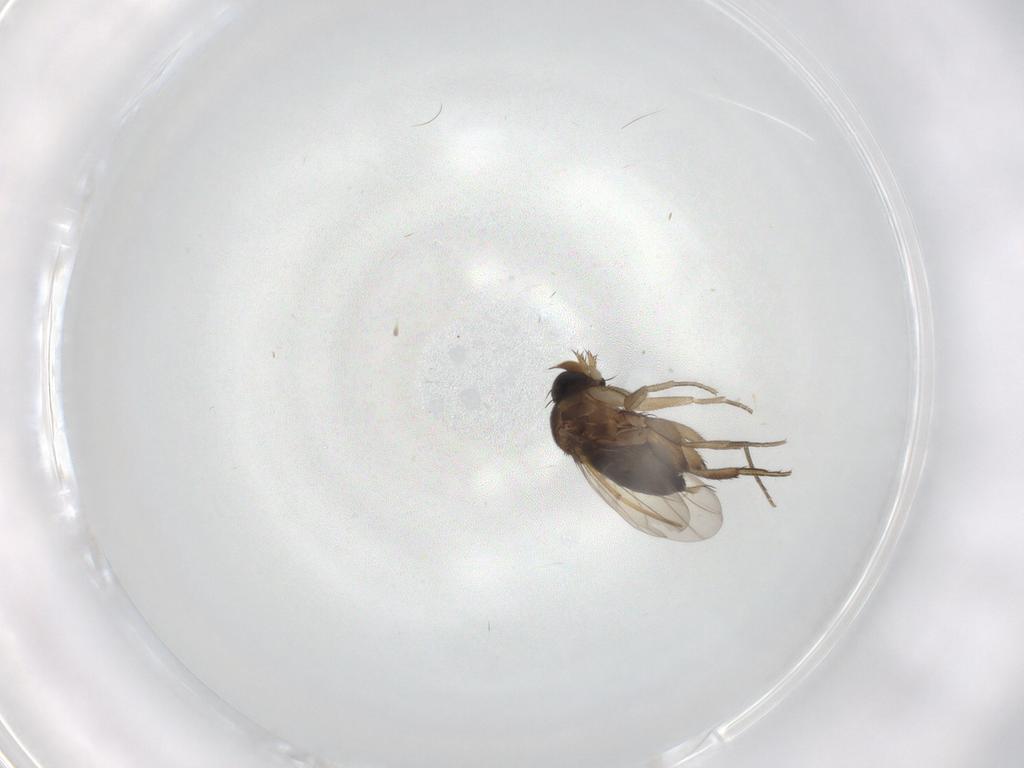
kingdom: Animalia
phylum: Arthropoda
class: Insecta
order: Diptera
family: Phoridae
